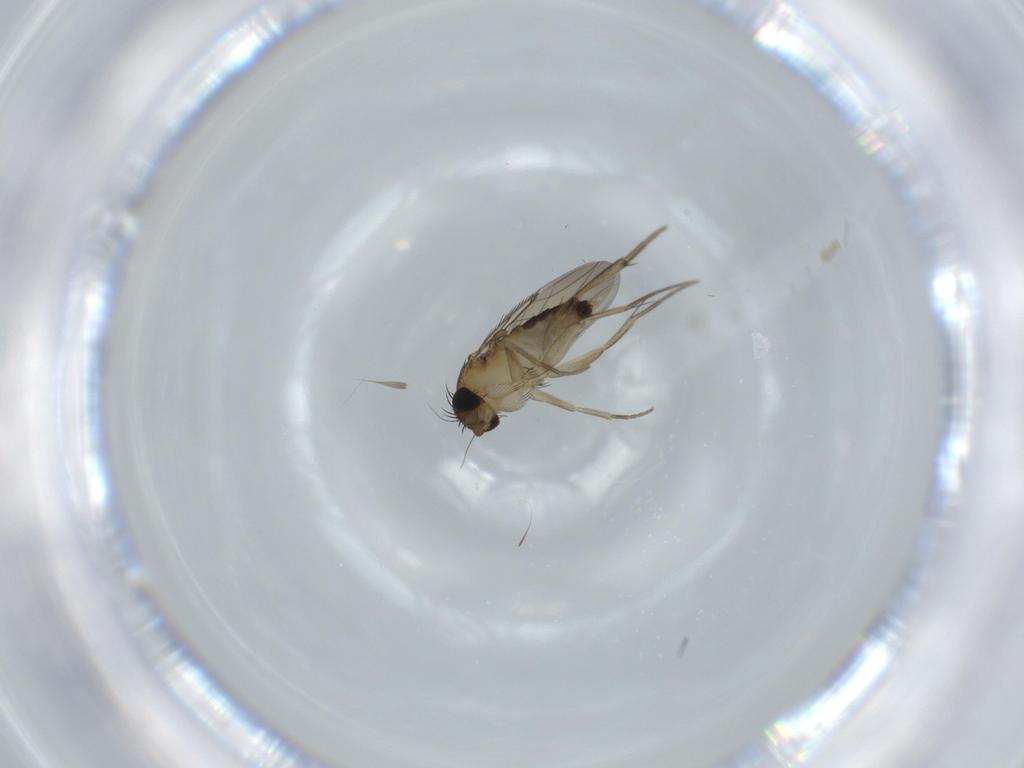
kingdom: Animalia
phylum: Arthropoda
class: Insecta
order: Diptera
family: Phoridae
